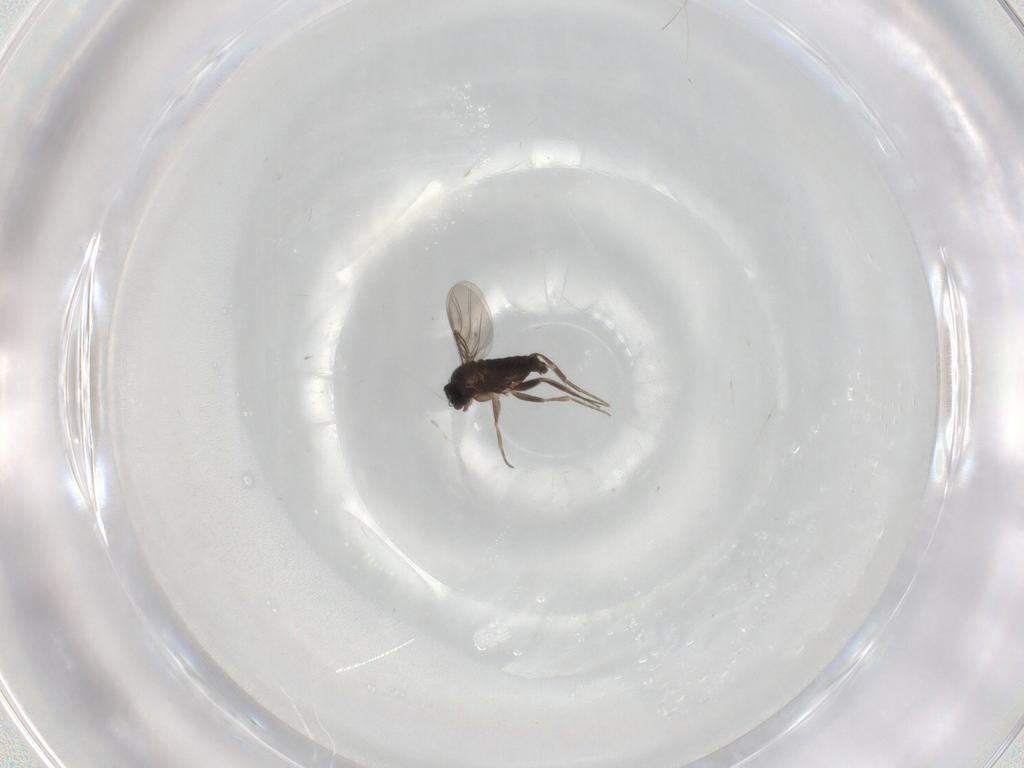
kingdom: Animalia
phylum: Arthropoda
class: Insecta
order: Diptera
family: Phoridae
